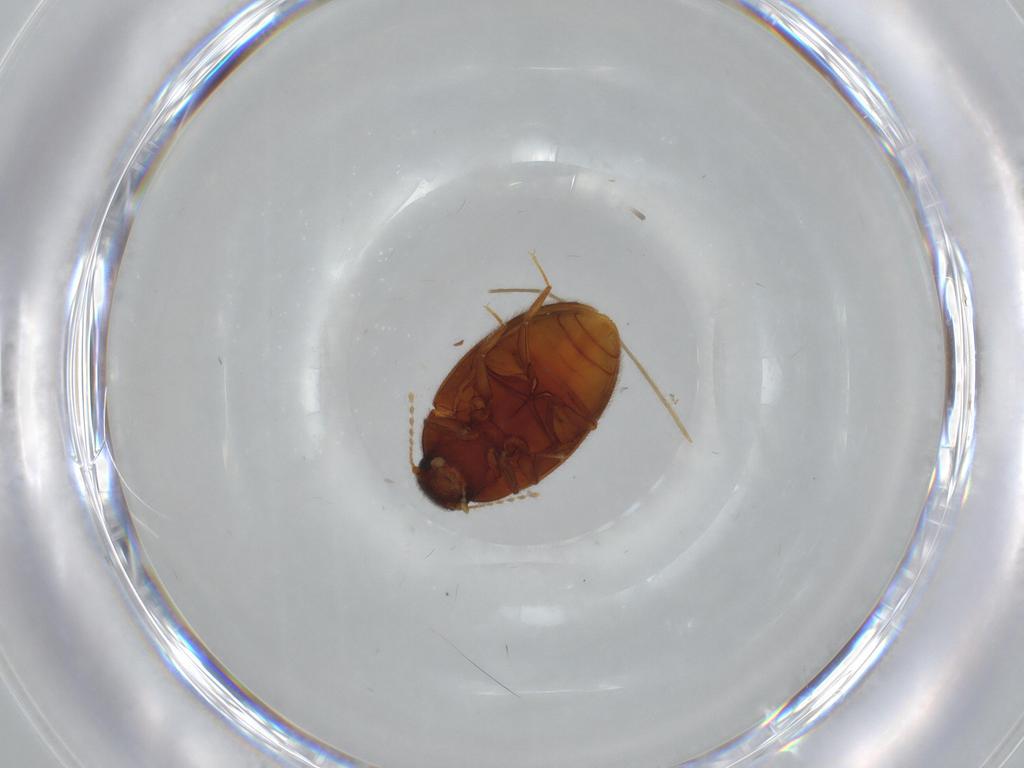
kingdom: Animalia
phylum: Arthropoda
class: Insecta
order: Coleoptera
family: Limnichidae
